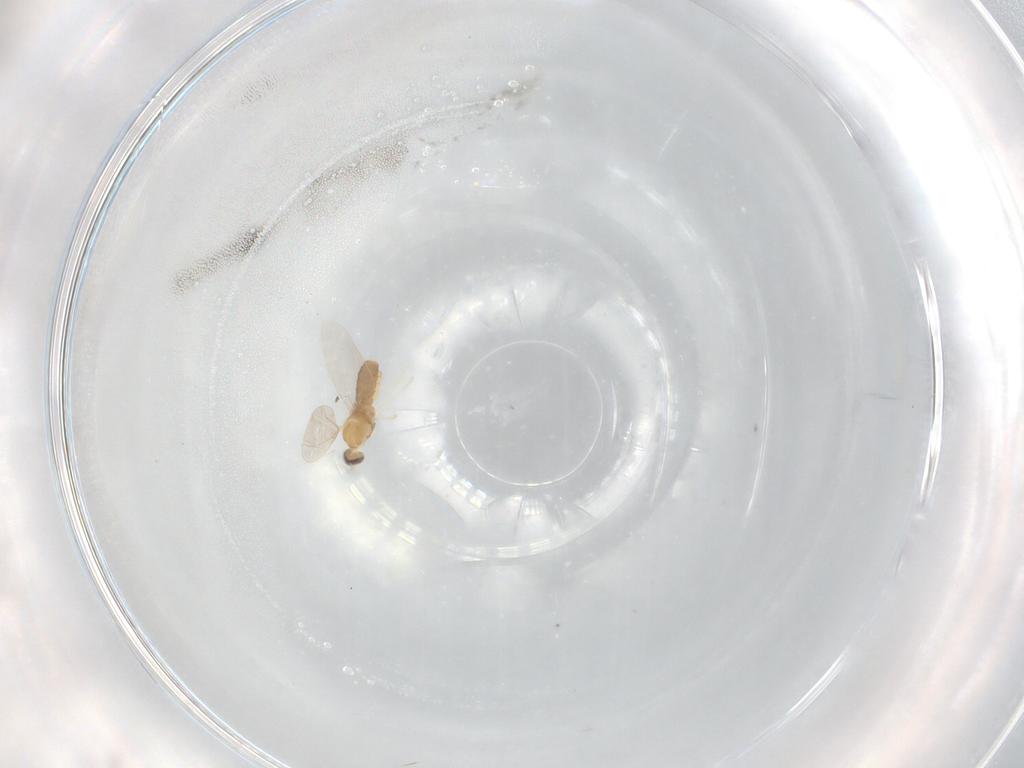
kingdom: Animalia
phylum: Arthropoda
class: Insecta
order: Diptera
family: Cecidomyiidae
